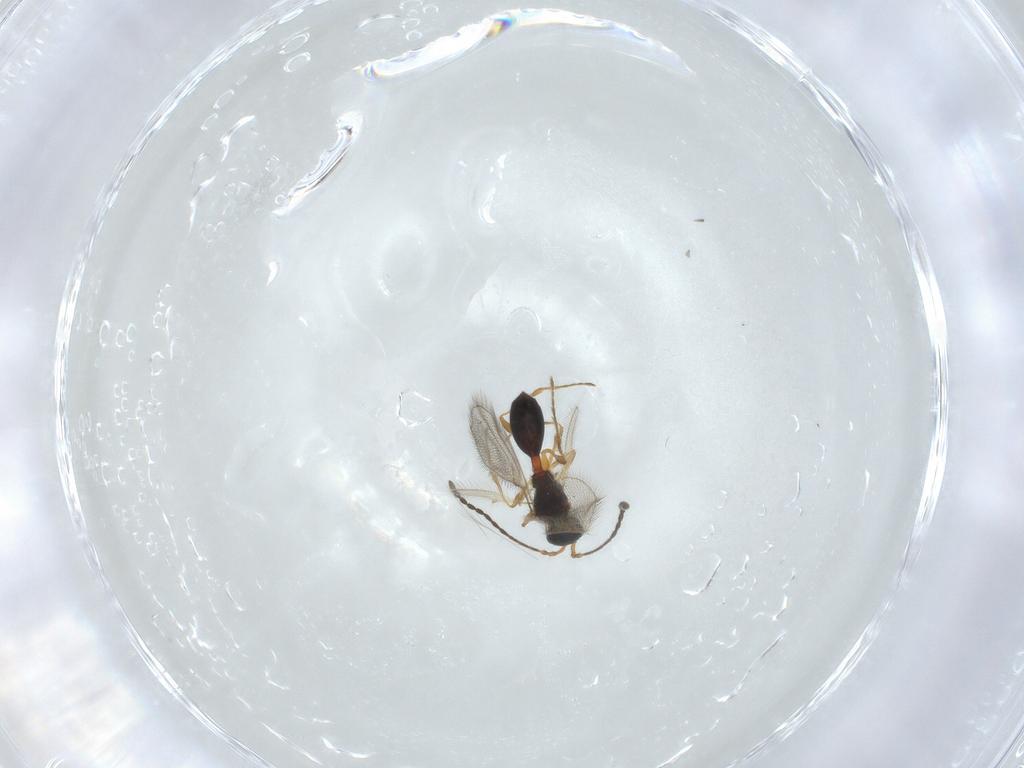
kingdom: Animalia
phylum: Arthropoda
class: Insecta
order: Hymenoptera
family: Diapriidae
